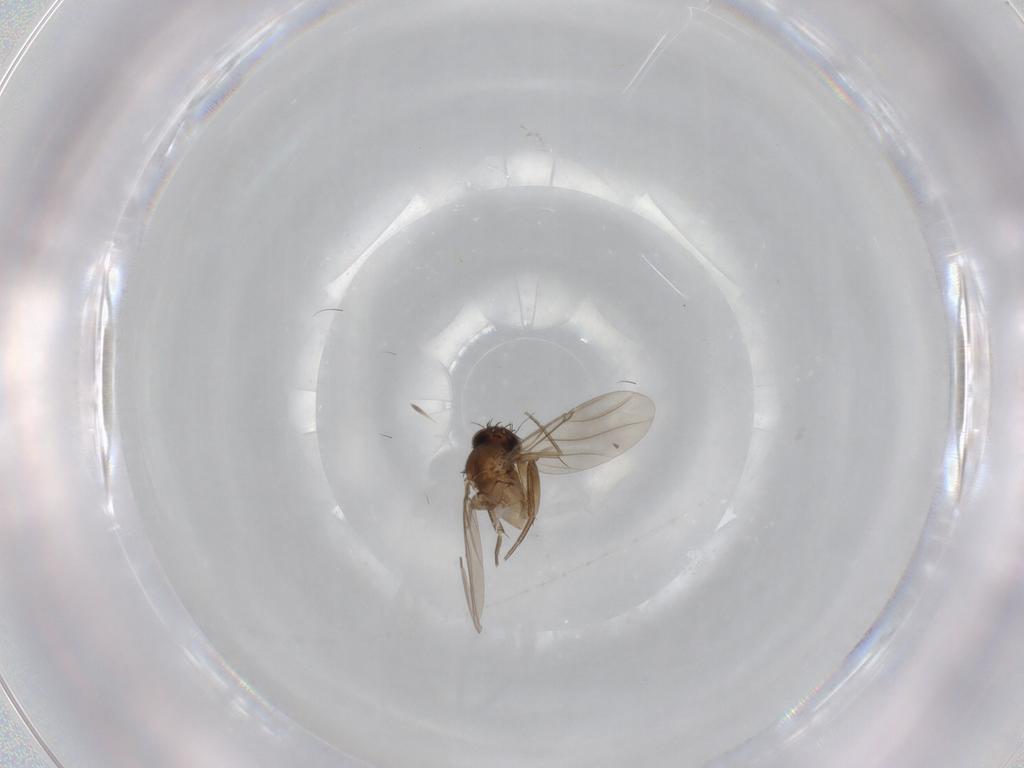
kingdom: Animalia
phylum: Arthropoda
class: Insecta
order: Diptera
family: Phoridae
